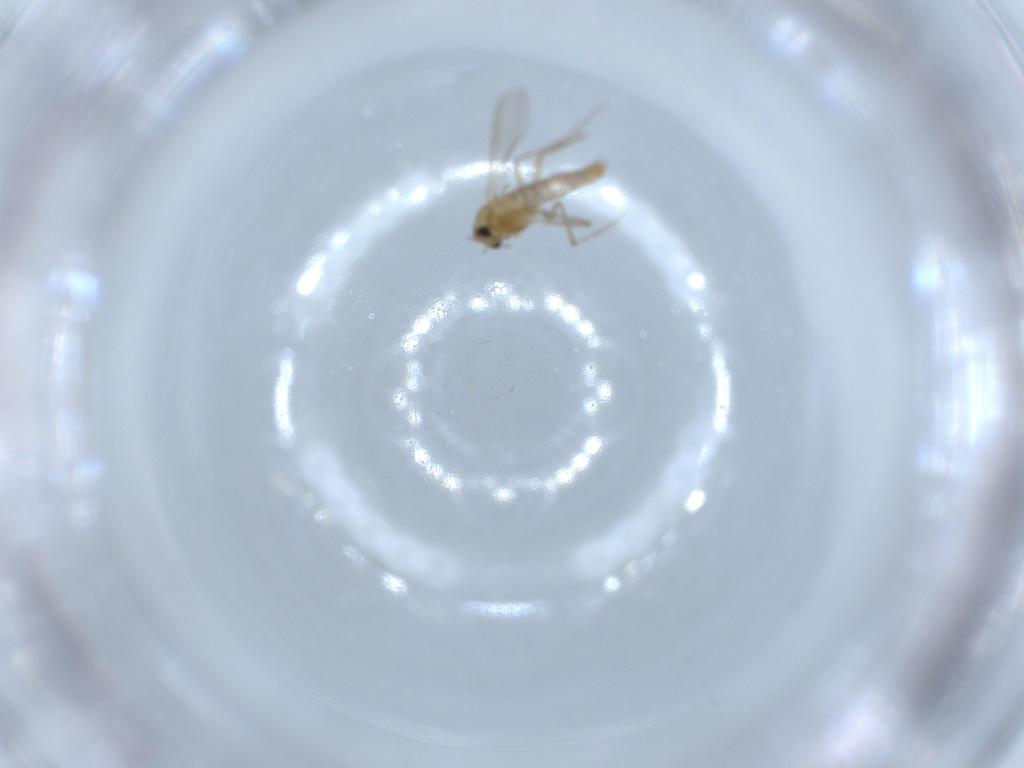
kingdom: Animalia
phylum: Arthropoda
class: Insecta
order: Diptera
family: Chironomidae
